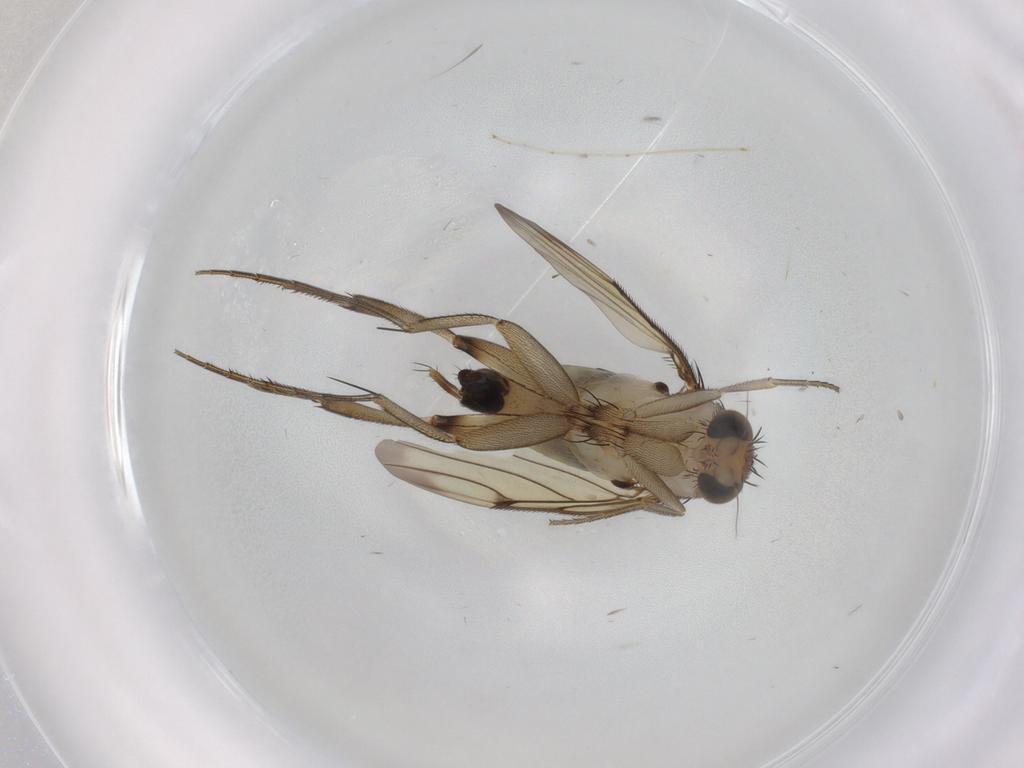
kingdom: Animalia
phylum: Arthropoda
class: Insecta
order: Diptera
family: Phoridae
